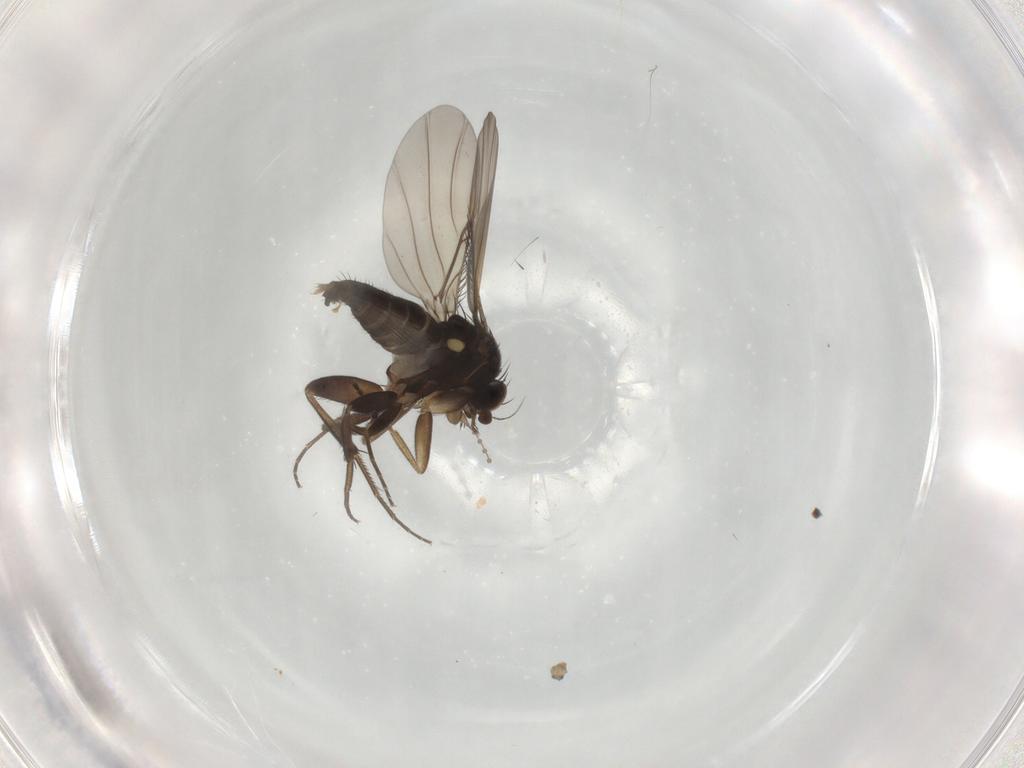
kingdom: Animalia
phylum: Arthropoda
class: Insecta
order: Diptera
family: Phoridae
